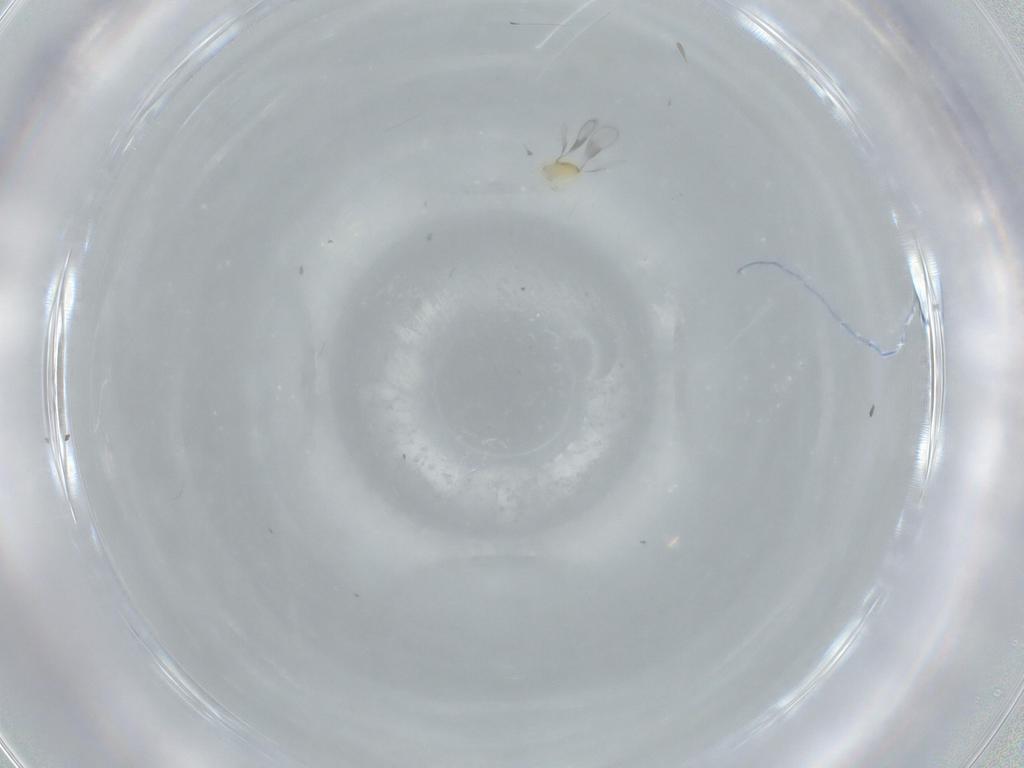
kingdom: Animalia
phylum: Arthropoda
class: Insecta
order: Hymenoptera
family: Aphelinidae
